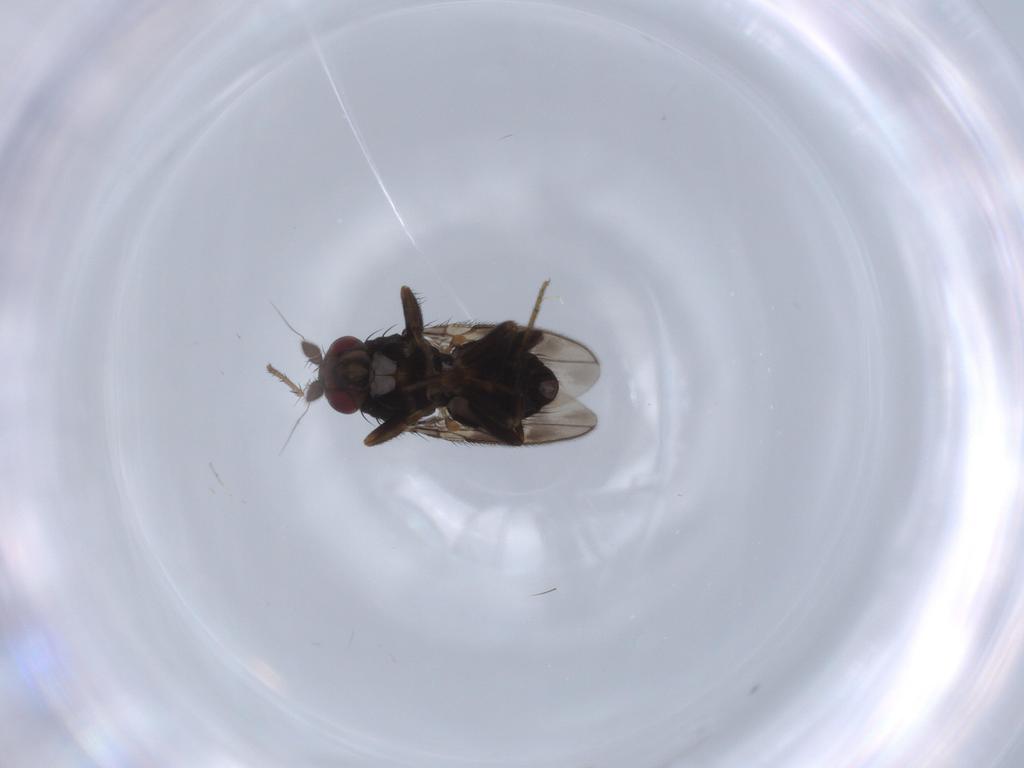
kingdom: Animalia
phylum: Arthropoda
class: Insecta
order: Diptera
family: Sphaeroceridae
